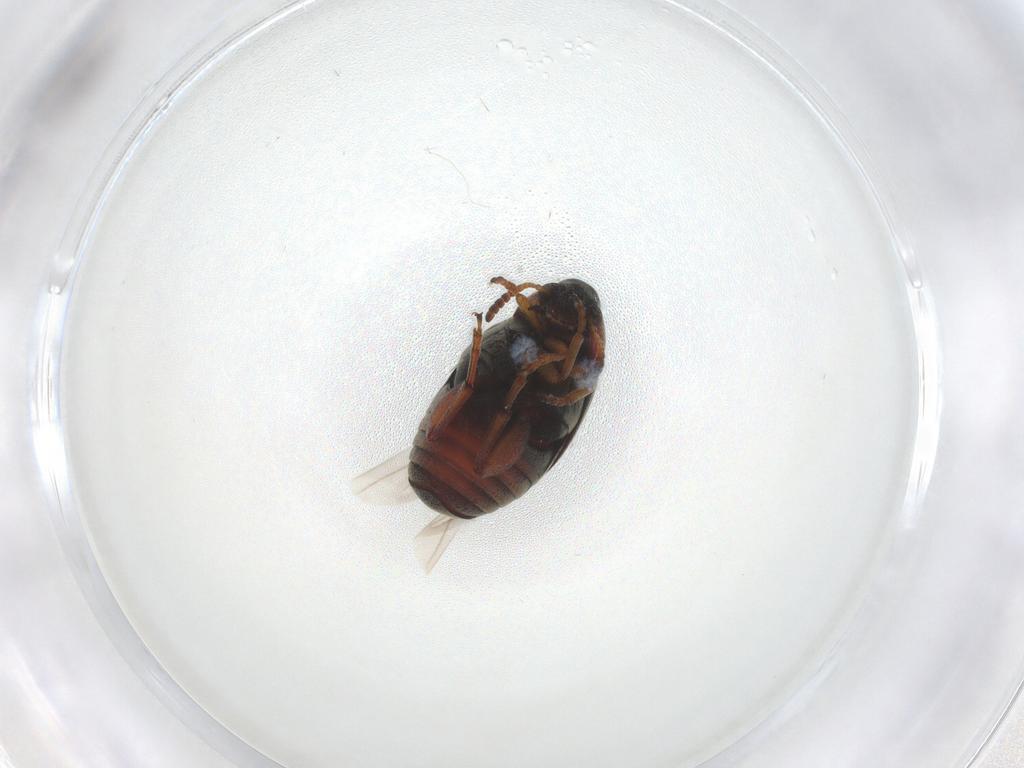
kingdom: Animalia
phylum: Arthropoda
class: Insecta
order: Coleoptera
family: Chrysomelidae
